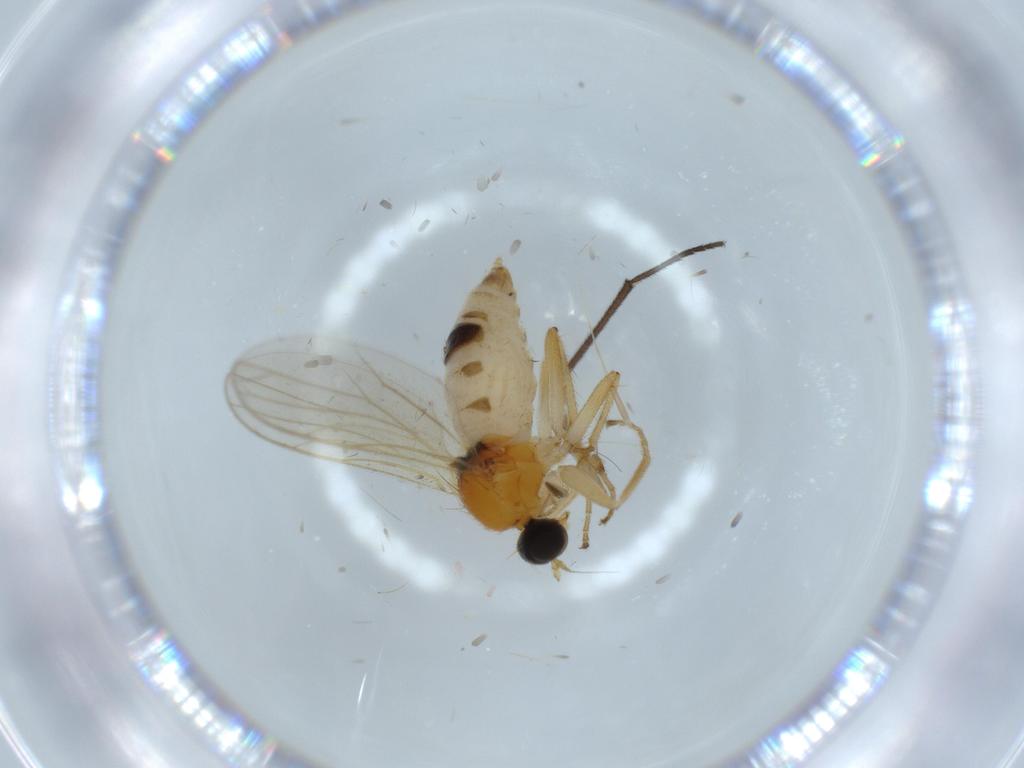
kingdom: Animalia
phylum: Arthropoda
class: Insecta
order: Diptera
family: Hybotidae
